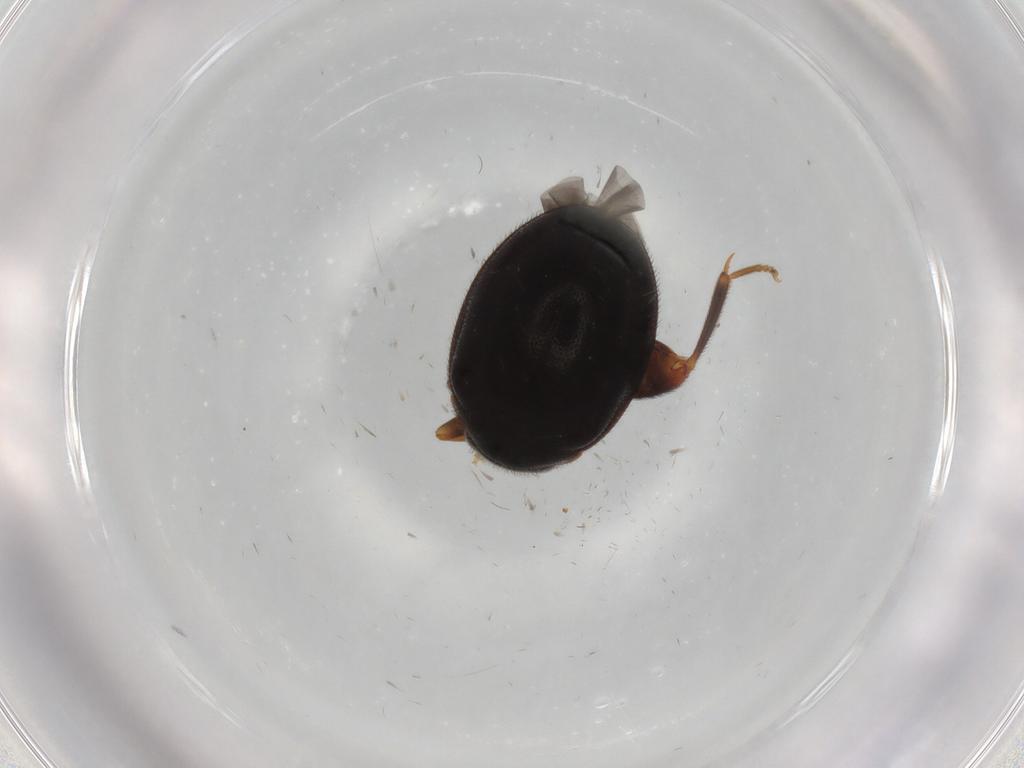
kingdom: Animalia
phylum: Arthropoda
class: Insecta
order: Coleoptera
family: Scirtidae
